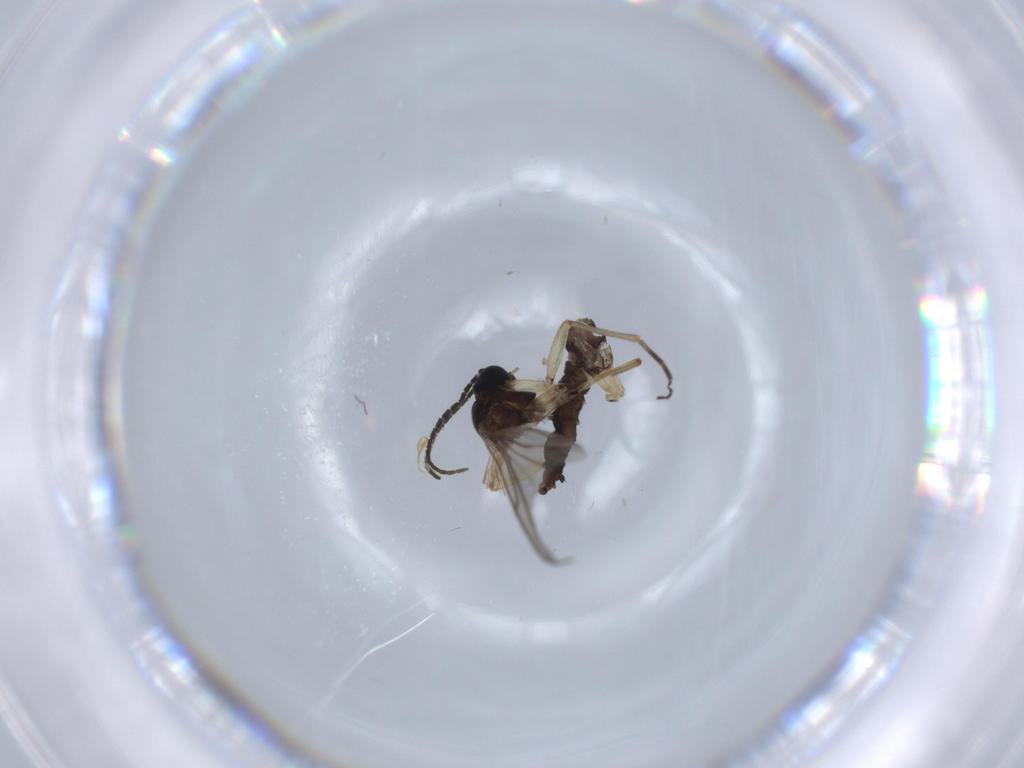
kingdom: Animalia
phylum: Arthropoda
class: Insecta
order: Diptera
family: Sciaridae
